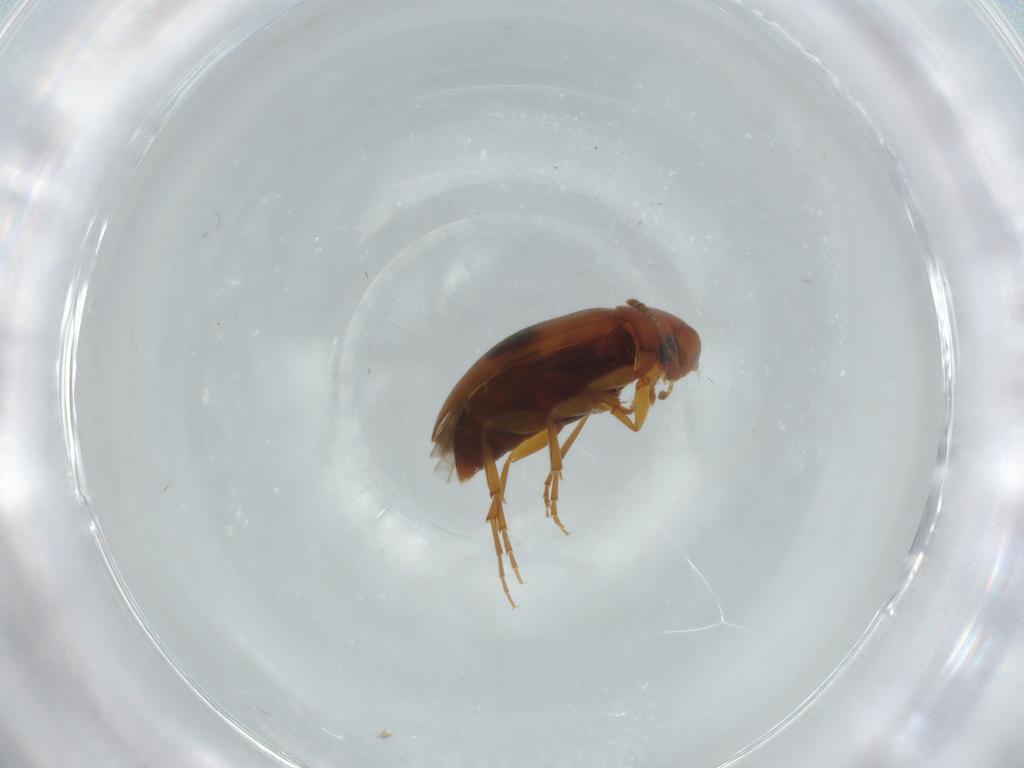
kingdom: Animalia
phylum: Arthropoda
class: Insecta
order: Coleoptera
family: Scraptiidae
